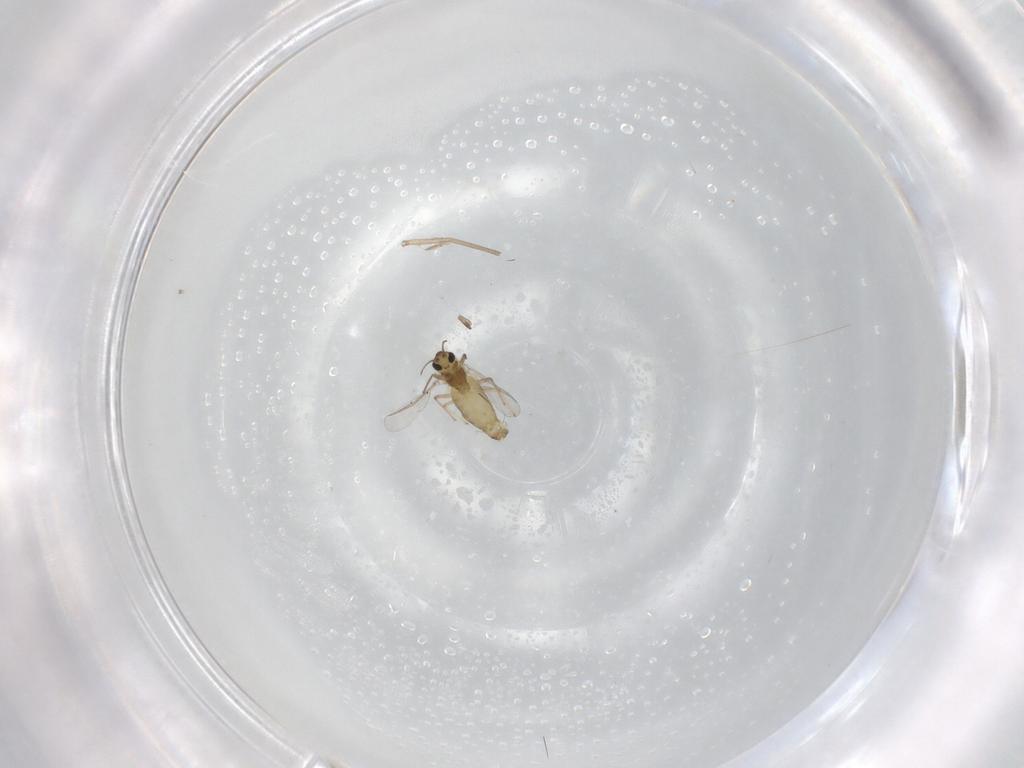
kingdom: Animalia
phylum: Arthropoda
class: Insecta
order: Diptera
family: Chironomidae
